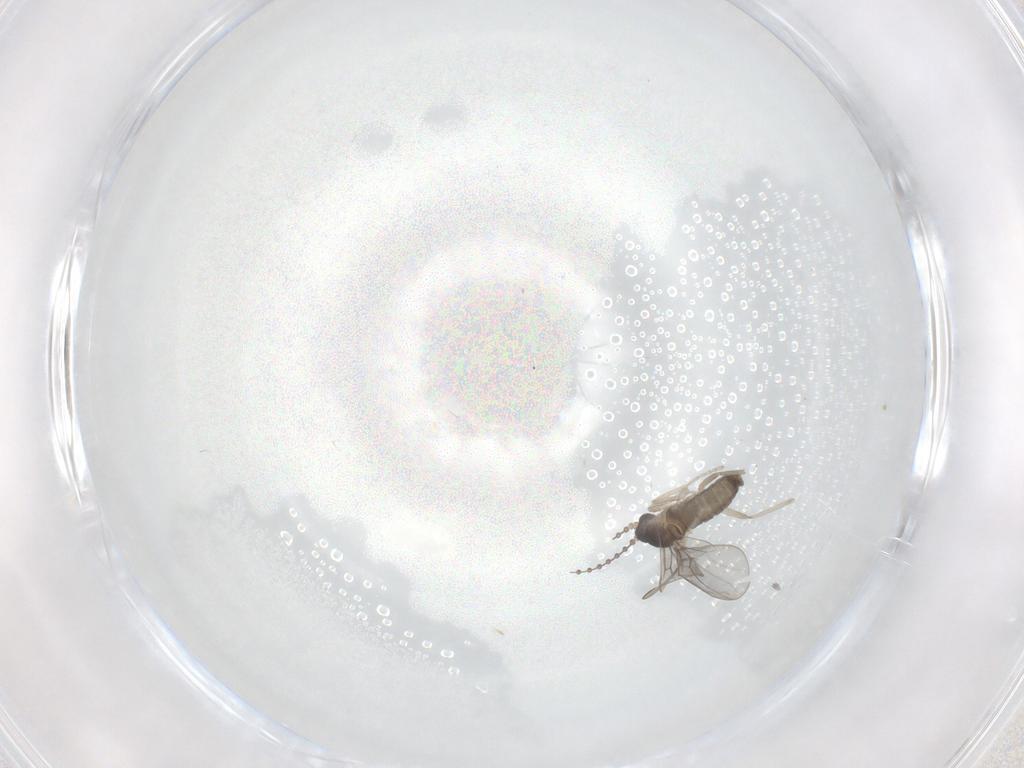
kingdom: Animalia
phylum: Arthropoda
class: Insecta
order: Diptera
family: Cecidomyiidae
